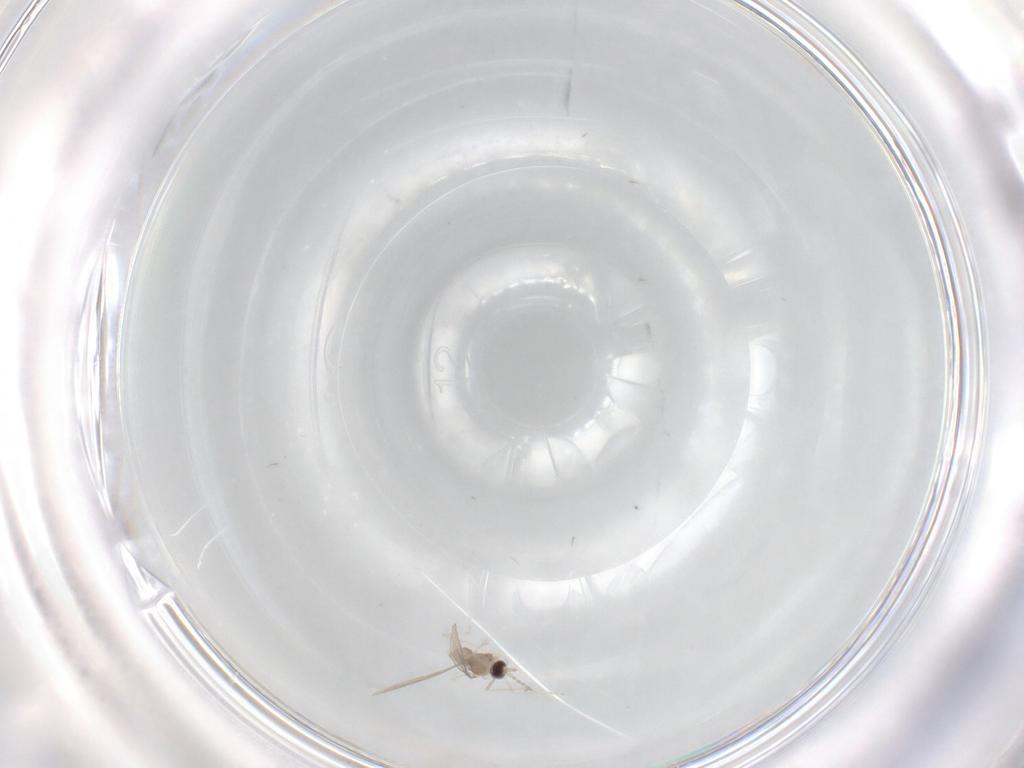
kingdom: Animalia
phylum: Arthropoda
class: Insecta
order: Diptera
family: Cecidomyiidae
